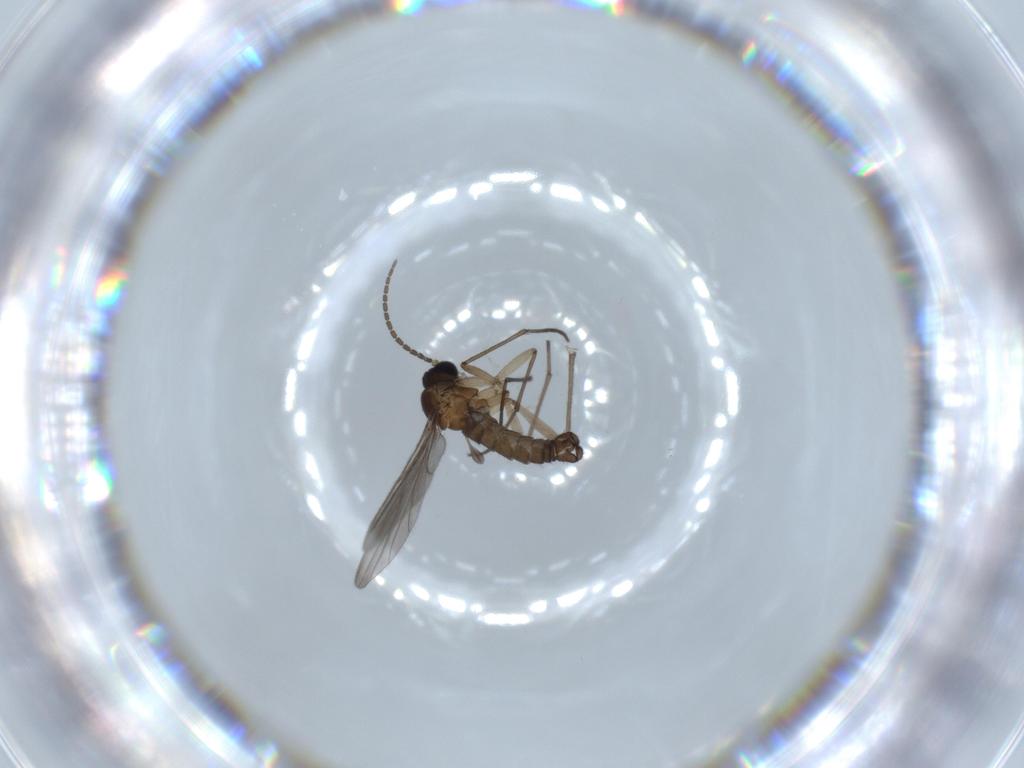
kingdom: Animalia
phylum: Arthropoda
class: Insecta
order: Diptera
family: Sciaridae
